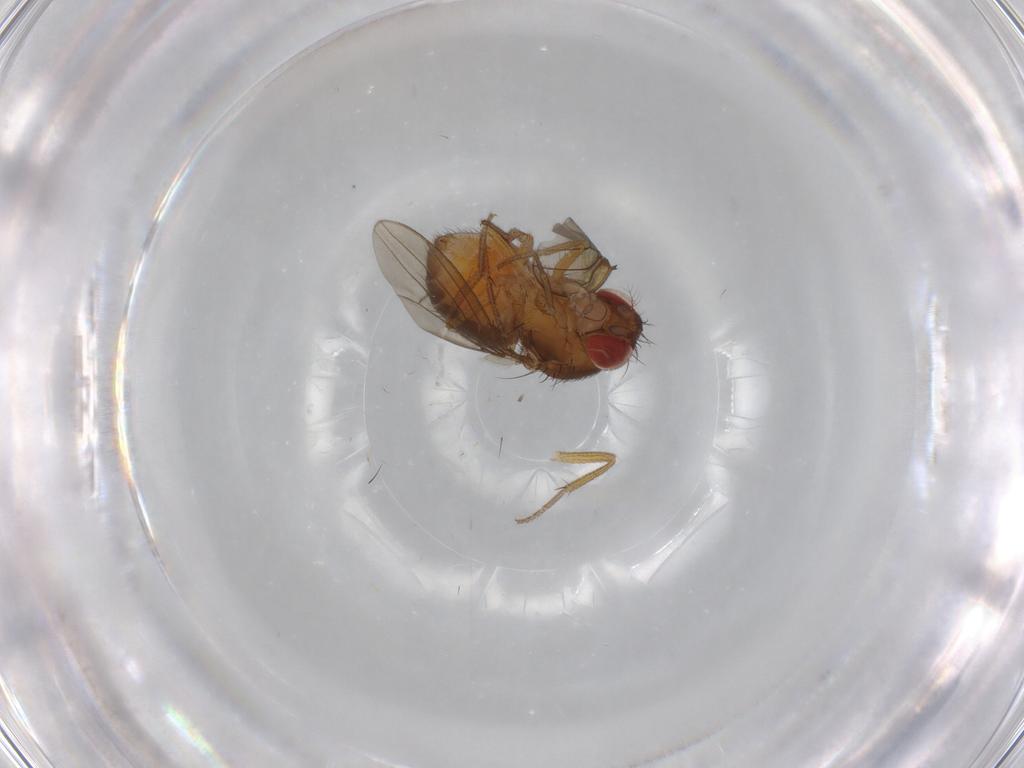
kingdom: Animalia
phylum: Arthropoda
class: Insecta
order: Diptera
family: Drosophilidae
